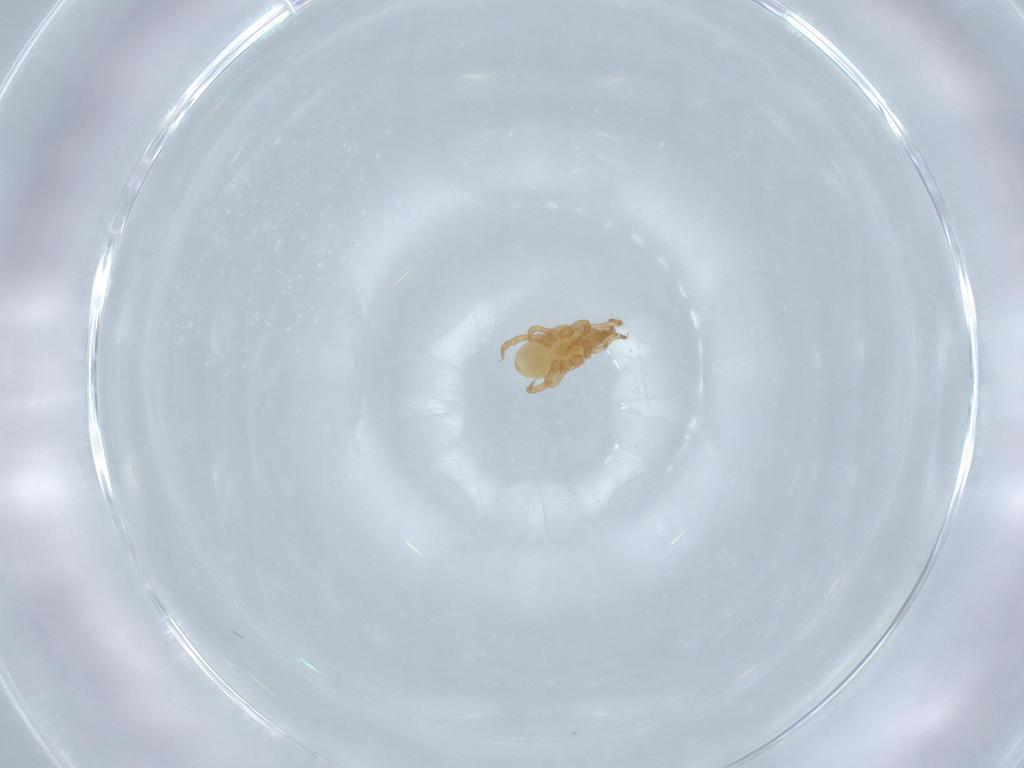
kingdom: Animalia
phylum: Arthropoda
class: Arachnida
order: Mesostigmata
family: Parasitidae
